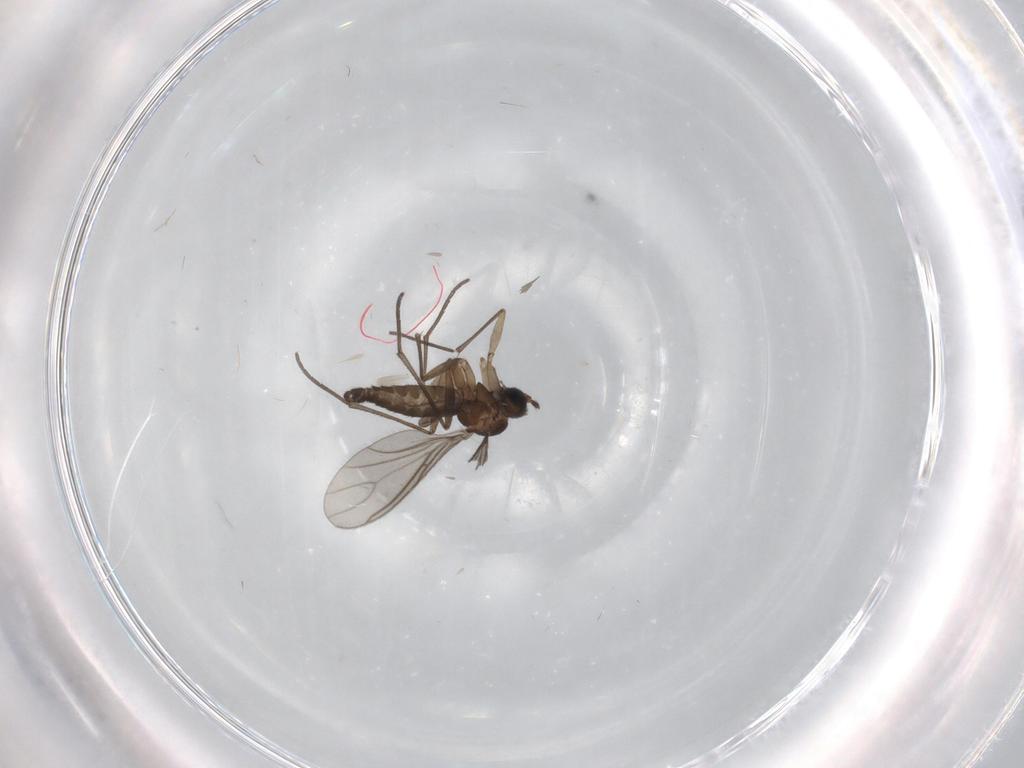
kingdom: Animalia
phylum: Arthropoda
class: Insecta
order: Diptera
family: Sciaridae
